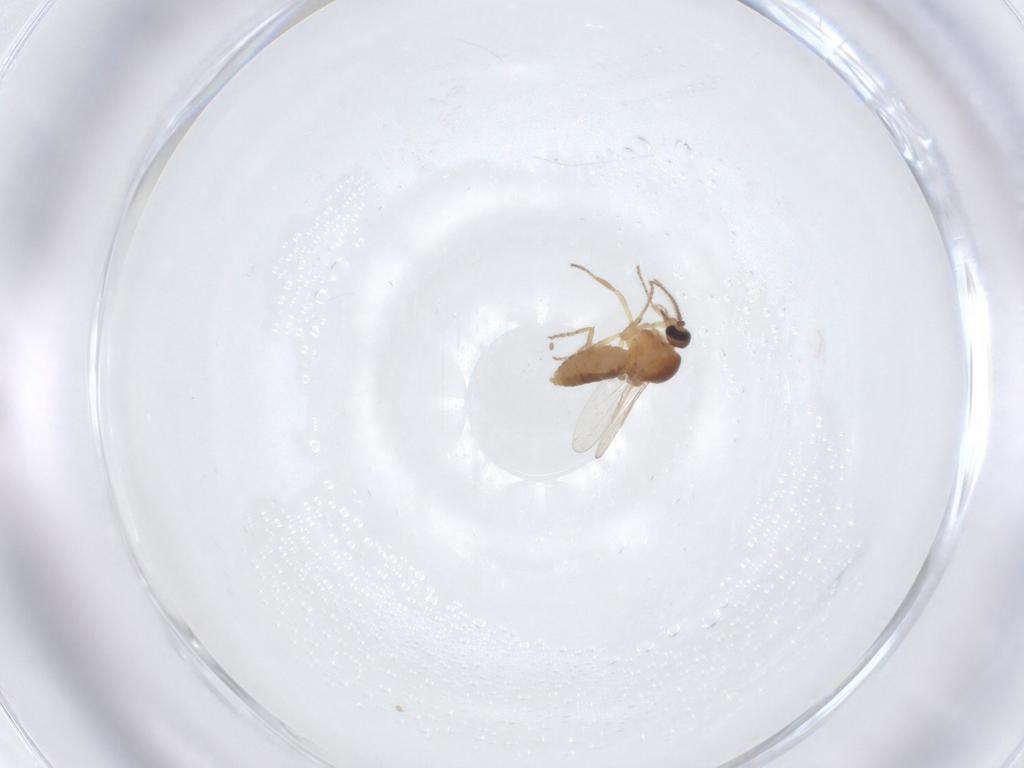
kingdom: Animalia
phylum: Arthropoda
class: Insecta
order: Diptera
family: Ceratopogonidae
